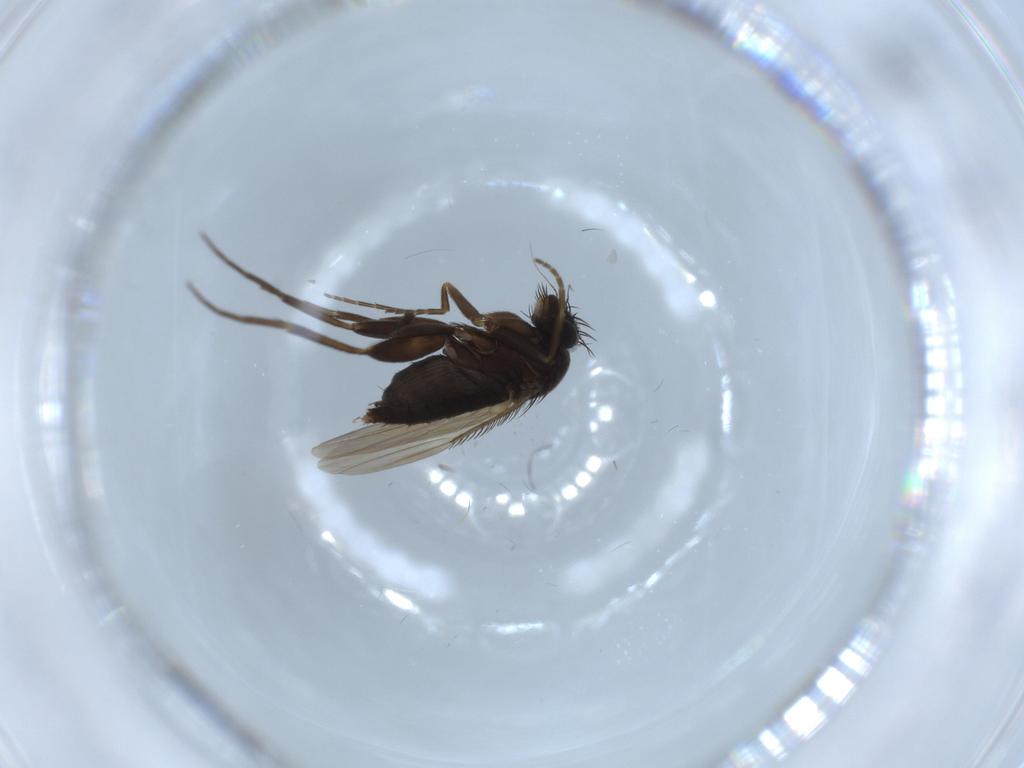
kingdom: Animalia
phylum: Arthropoda
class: Insecta
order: Diptera
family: Phoridae
